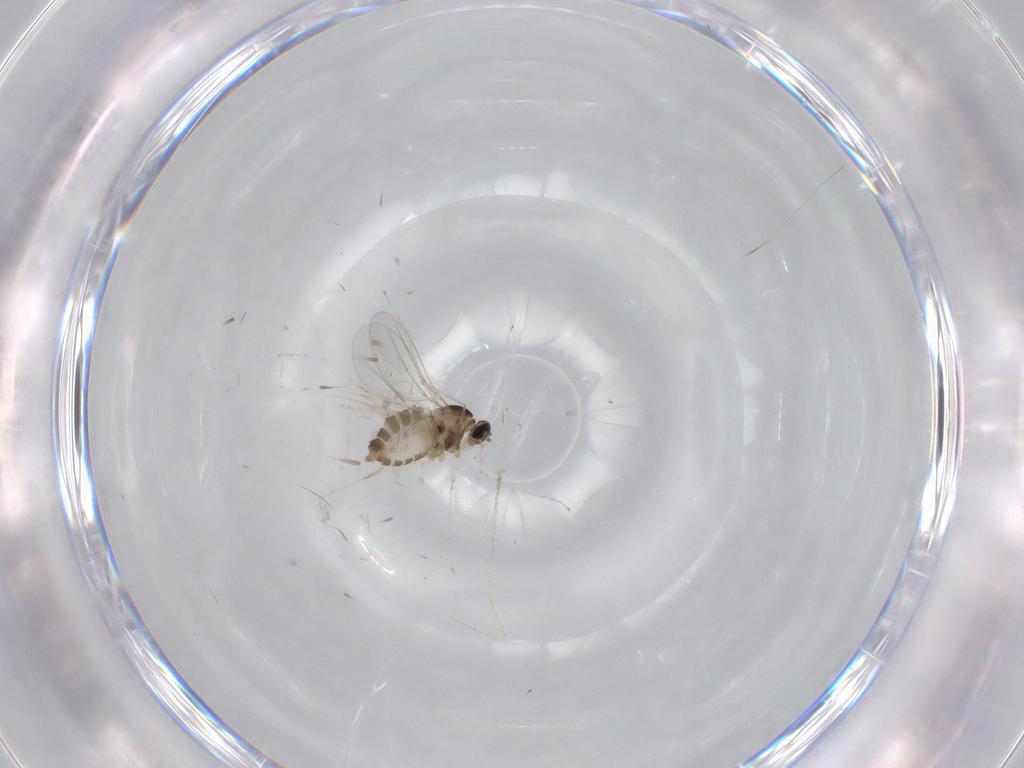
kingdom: Animalia
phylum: Arthropoda
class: Insecta
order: Diptera
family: Cecidomyiidae
